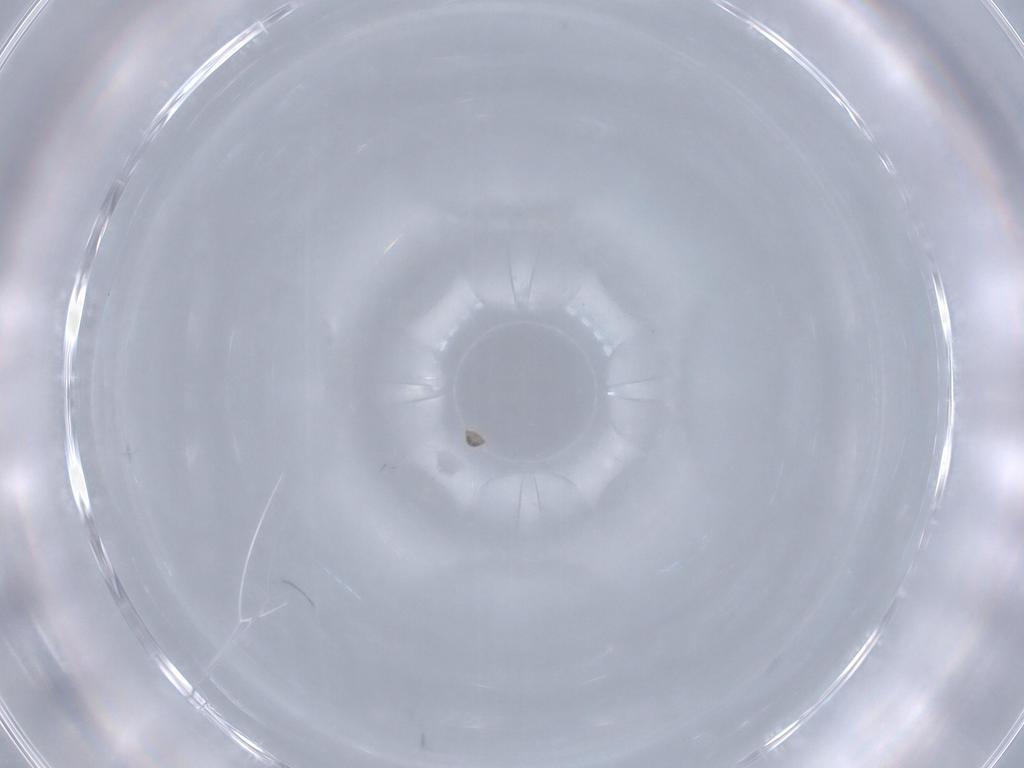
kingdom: Animalia
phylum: Arthropoda
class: Arachnida
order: Sarcoptiformes
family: Acaridae
